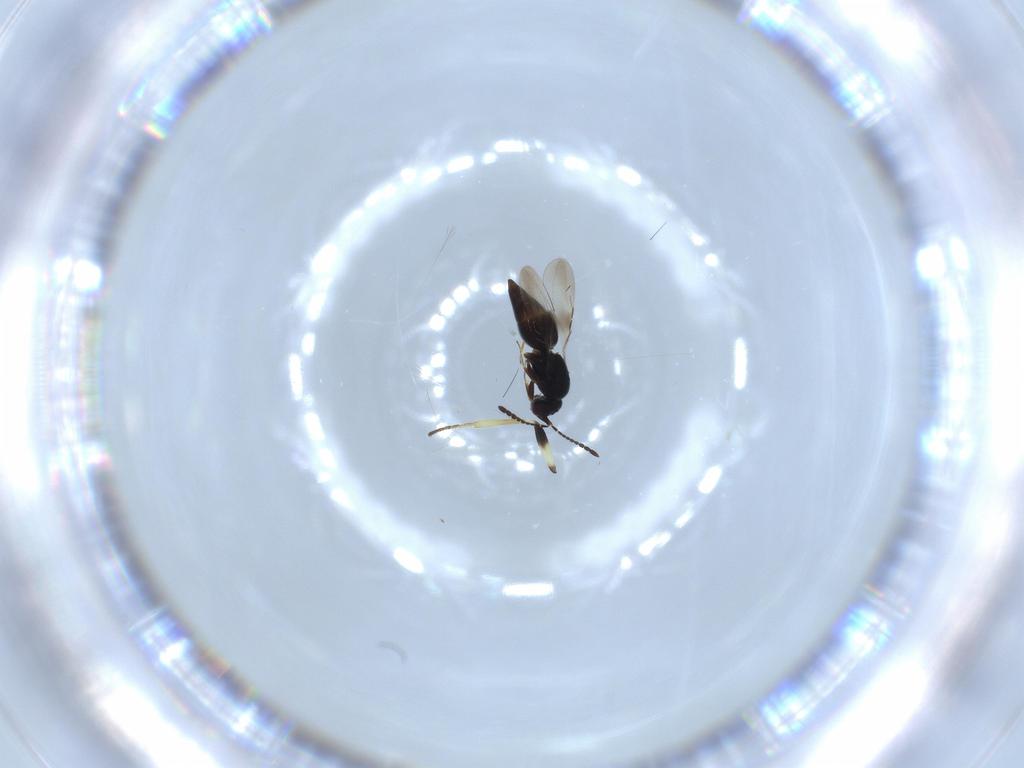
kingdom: Animalia
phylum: Arthropoda
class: Insecta
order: Hymenoptera
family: Ceraphronidae
